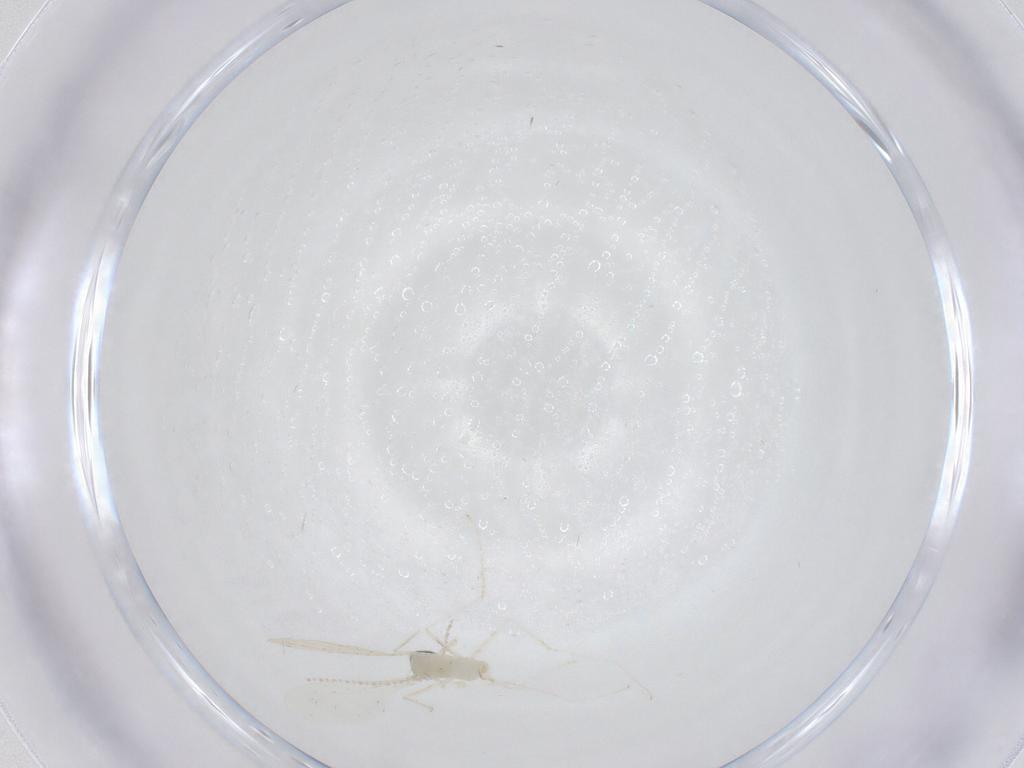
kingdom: Animalia
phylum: Arthropoda
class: Insecta
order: Diptera
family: Cecidomyiidae
